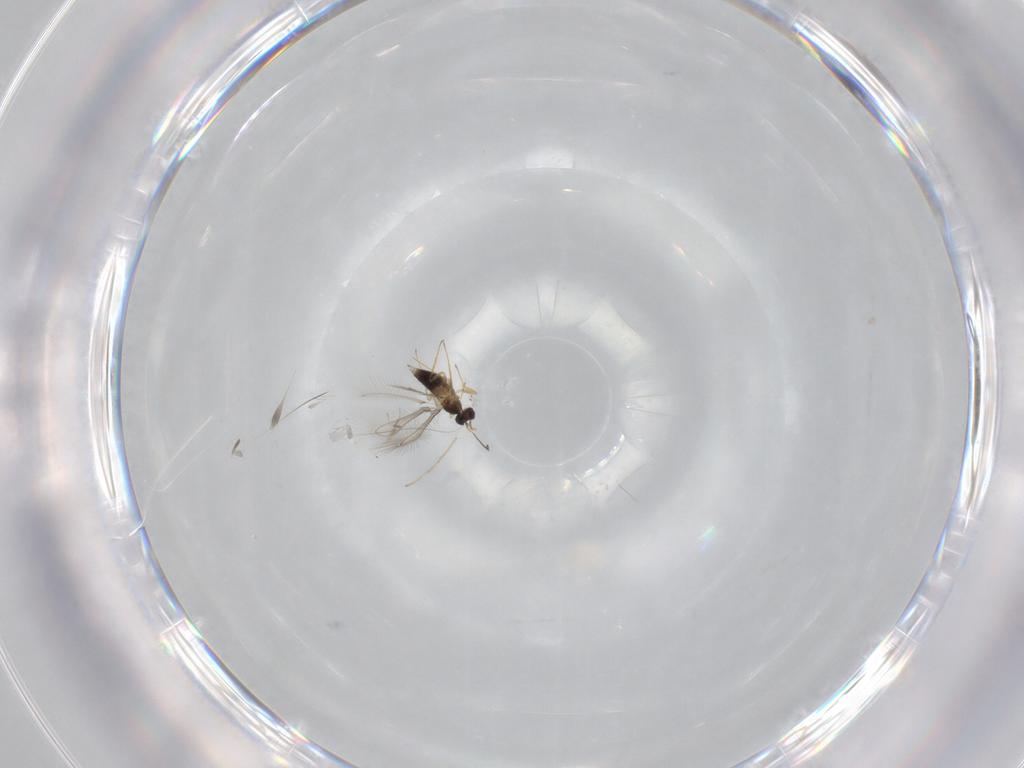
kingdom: Animalia
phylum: Arthropoda
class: Insecta
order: Hymenoptera
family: Mymaridae
